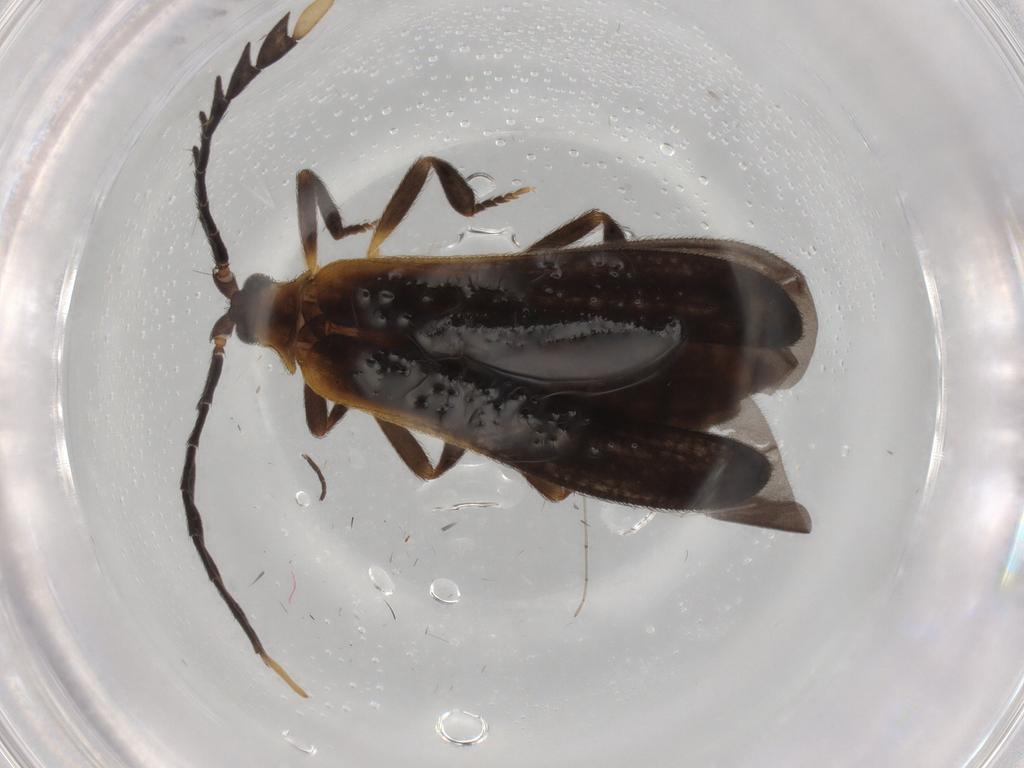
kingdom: Animalia
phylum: Arthropoda
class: Insecta
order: Coleoptera
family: Lycidae
